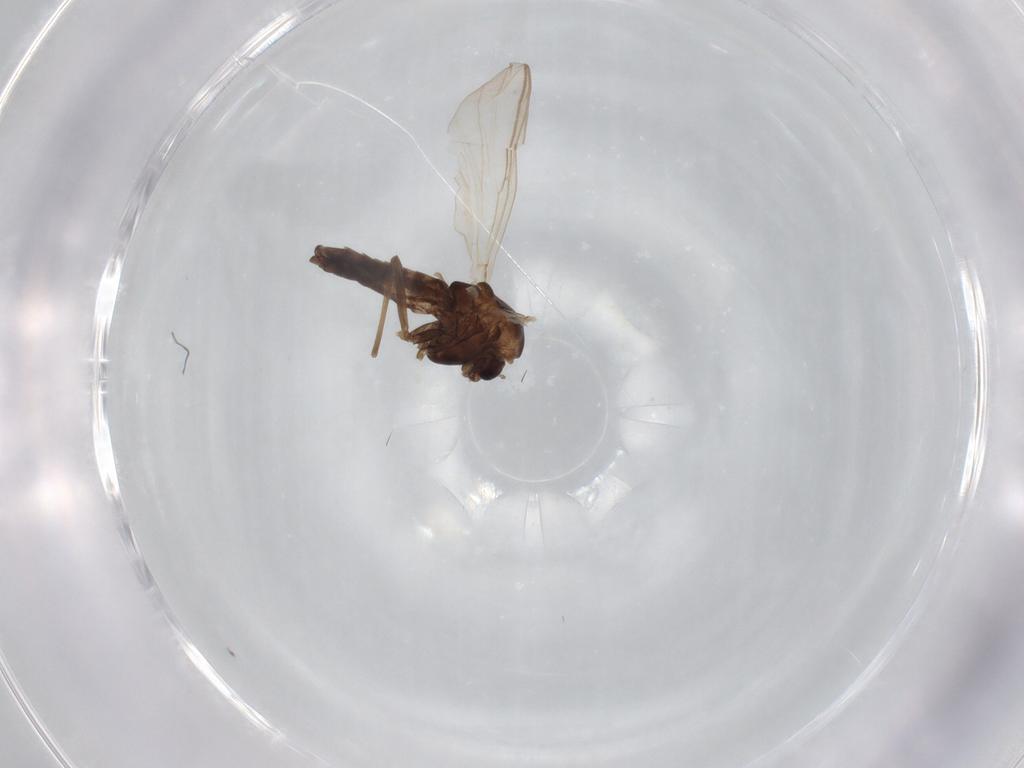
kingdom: Animalia
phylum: Arthropoda
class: Insecta
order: Diptera
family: Chironomidae
